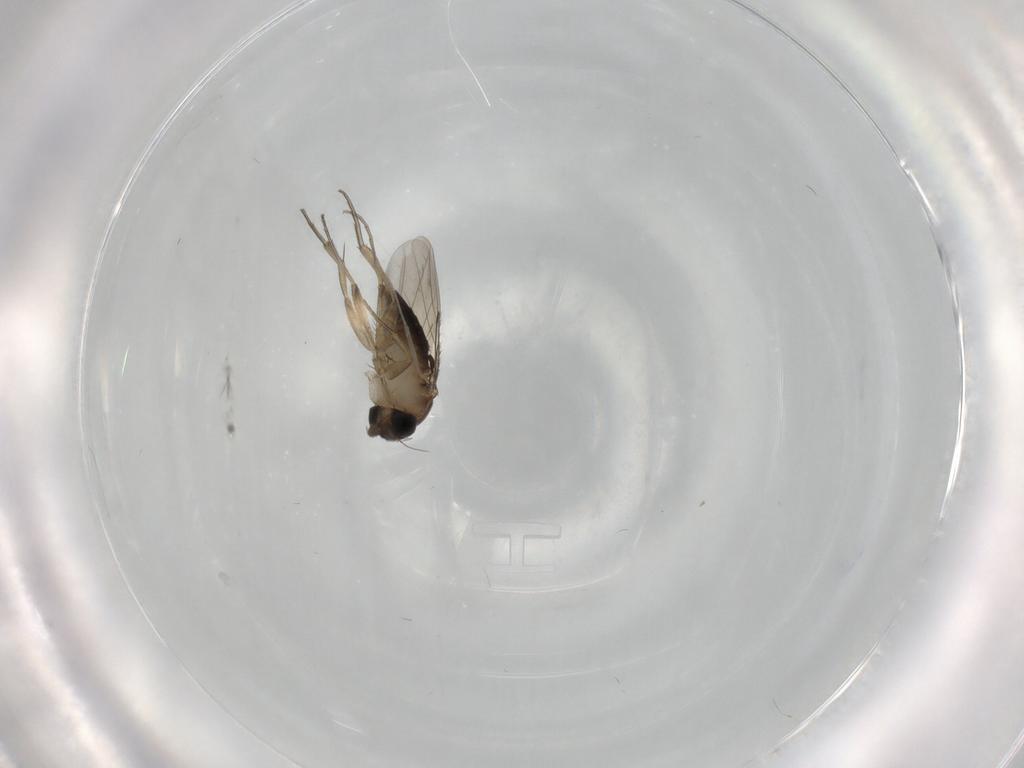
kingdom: Animalia
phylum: Arthropoda
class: Insecta
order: Diptera
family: Phoridae
